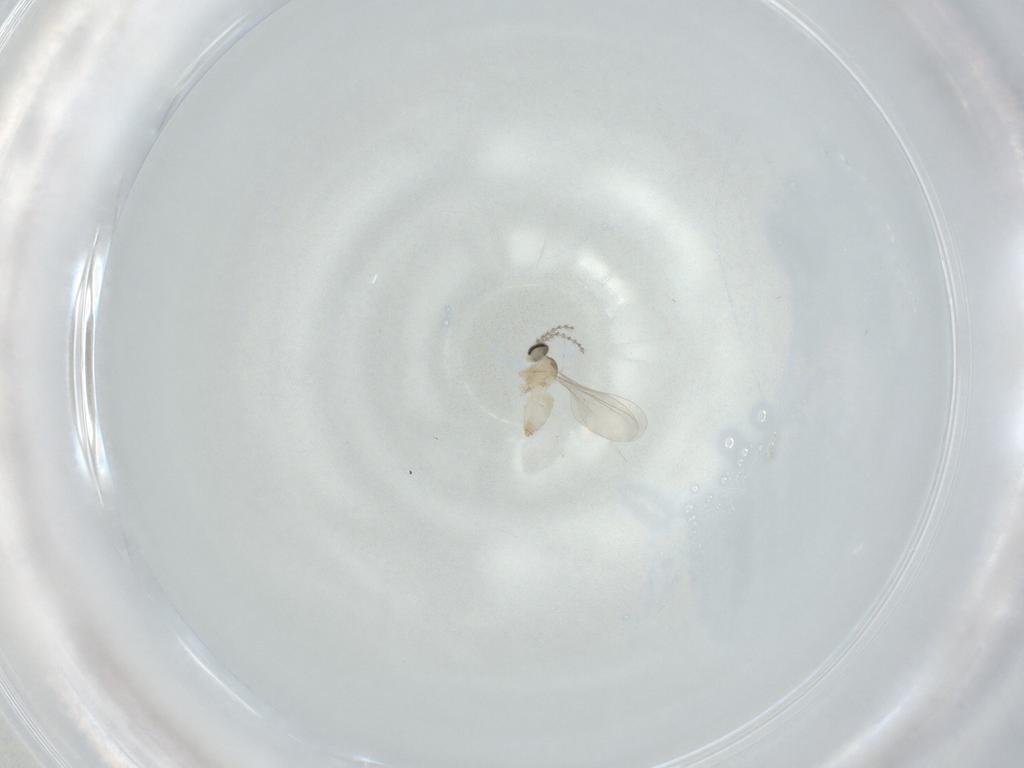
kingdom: Animalia
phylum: Arthropoda
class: Insecta
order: Diptera
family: Cecidomyiidae
